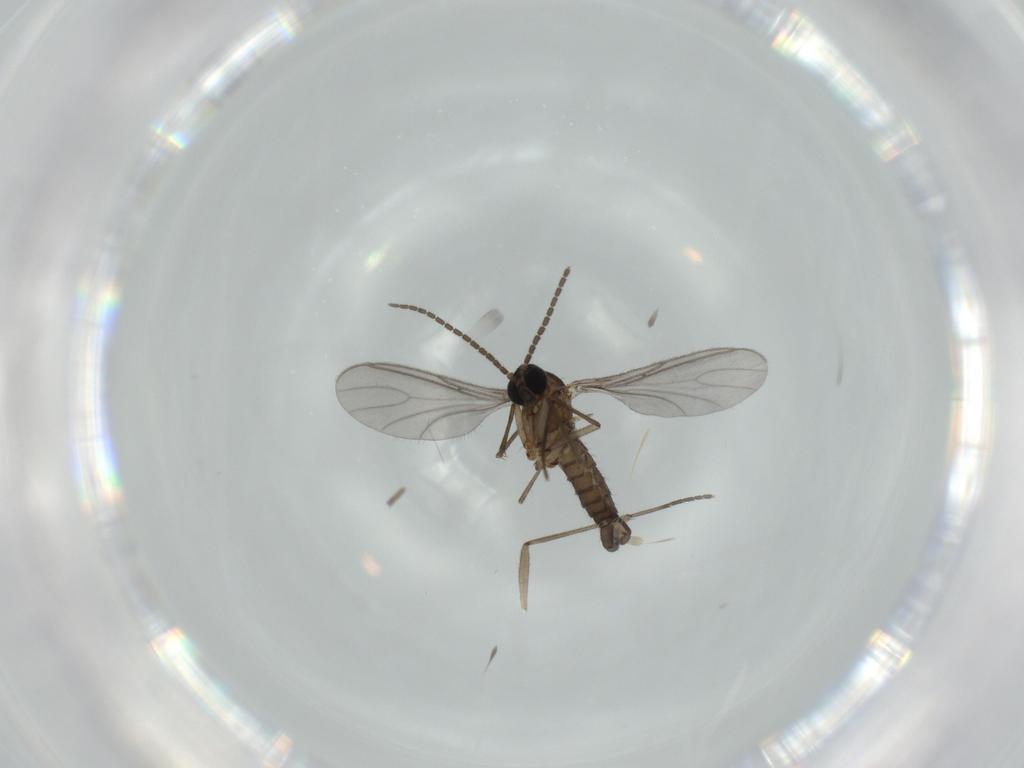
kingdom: Animalia
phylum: Arthropoda
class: Insecta
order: Diptera
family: Sciaridae
